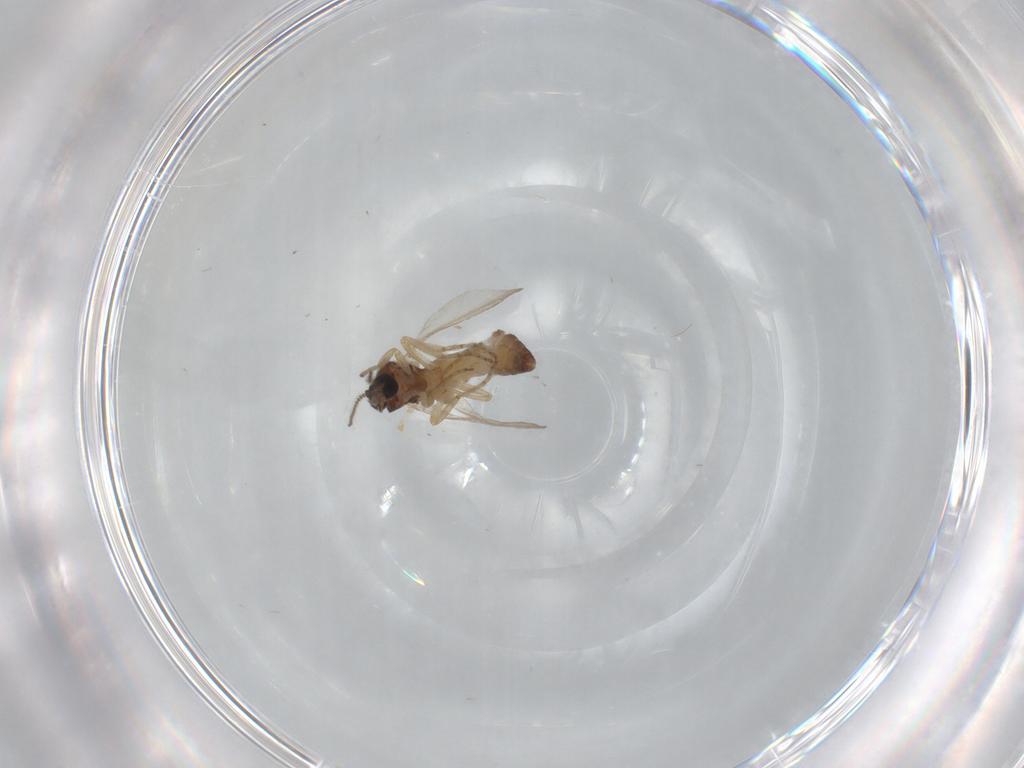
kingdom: Animalia
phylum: Arthropoda
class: Insecta
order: Diptera
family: Ceratopogonidae
